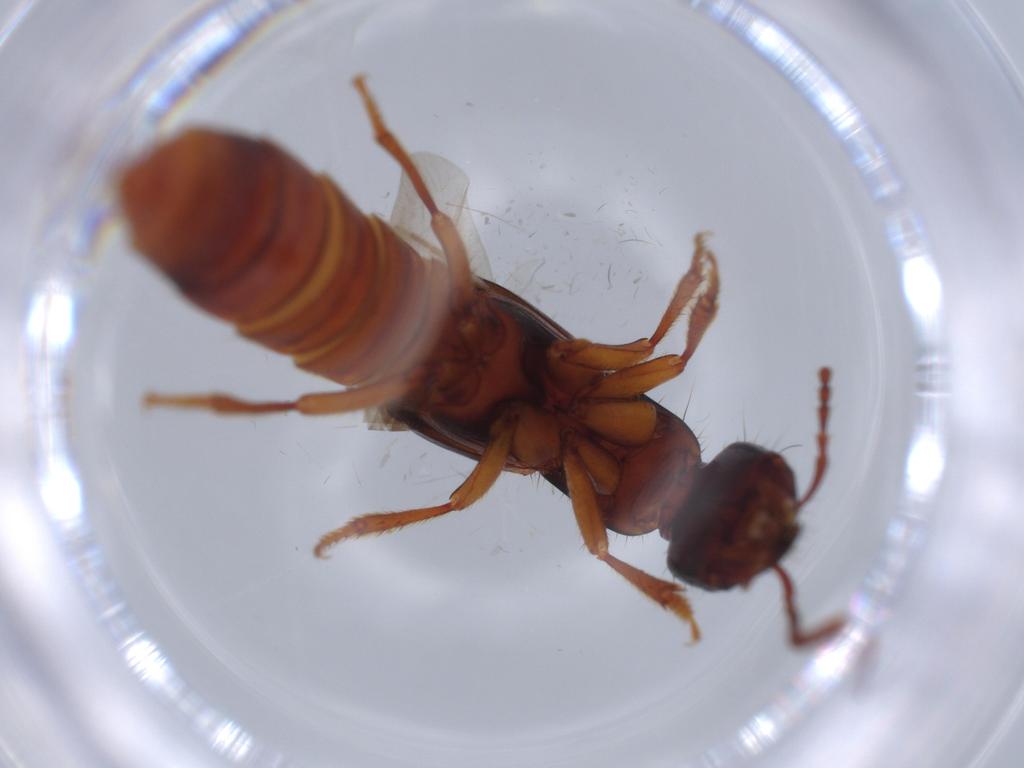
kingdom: Animalia
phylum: Arthropoda
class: Insecta
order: Coleoptera
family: Staphylinidae
